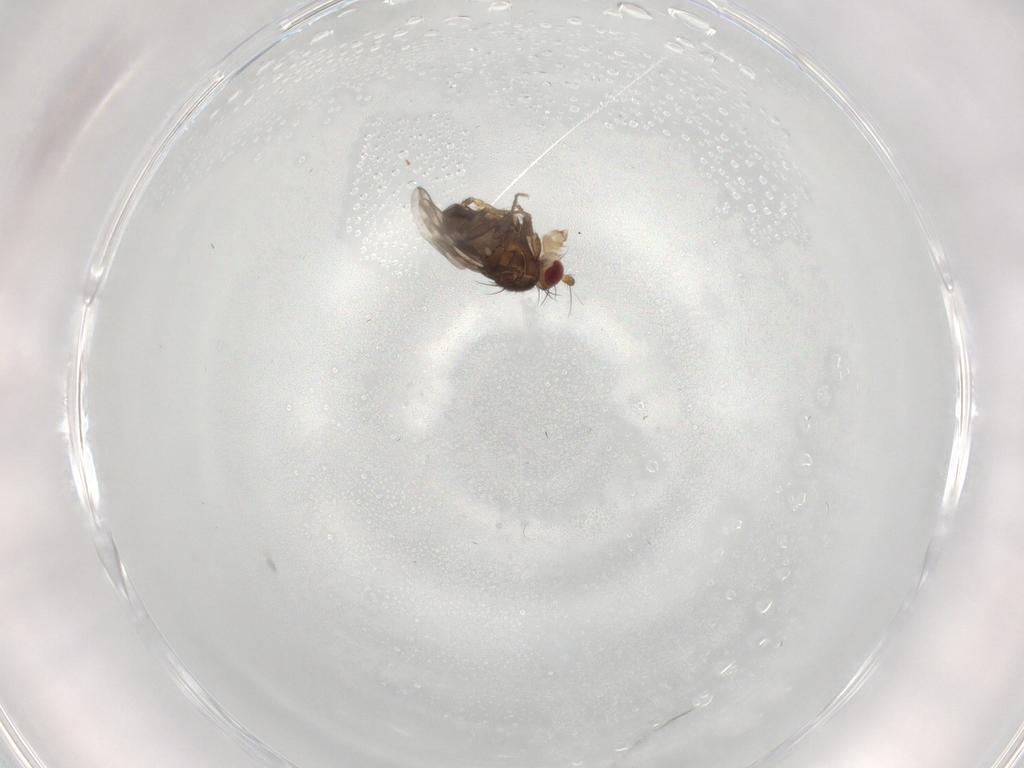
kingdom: Animalia
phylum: Arthropoda
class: Insecta
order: Diptera
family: Sphaeroceridae
